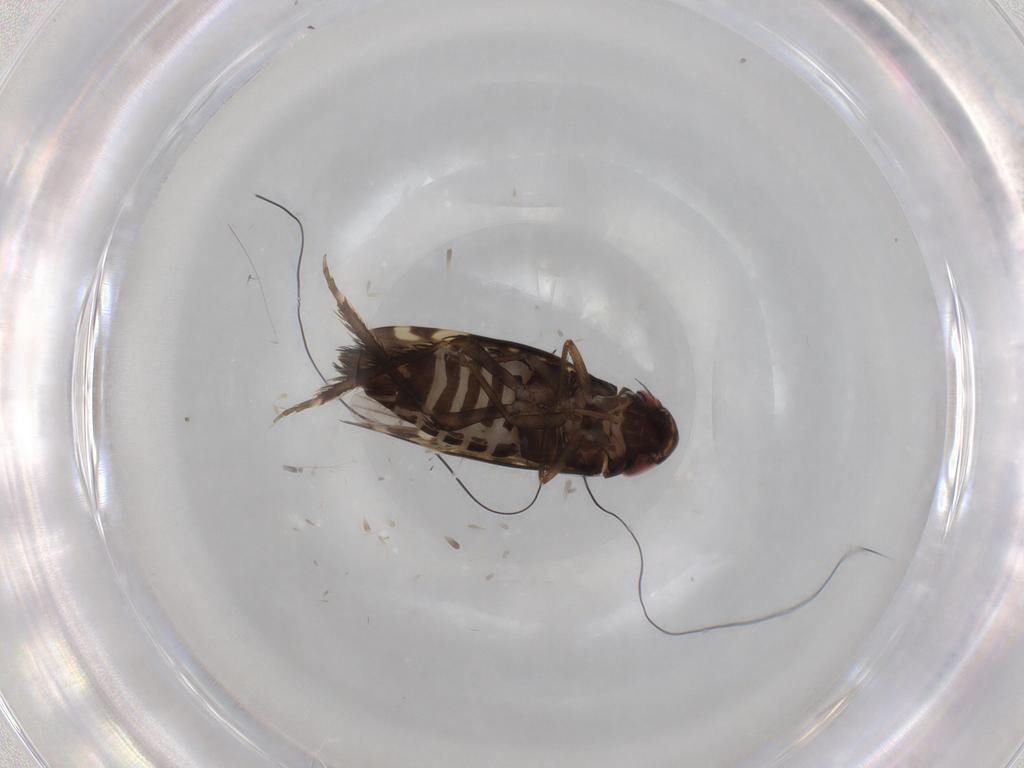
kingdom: Animalia
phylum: Arthropoda
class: Insecta
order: Hemiptera
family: Cicadellidae
